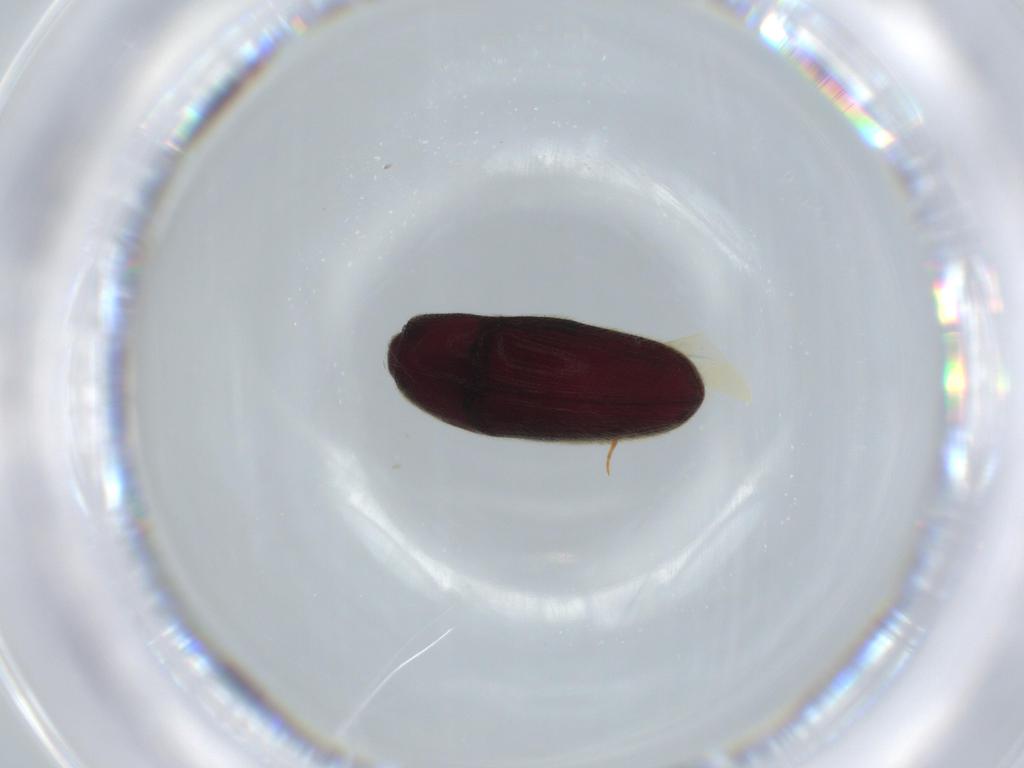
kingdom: Animalia
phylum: Arthropoda
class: Insecta
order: Coleoptera
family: Throscidae
